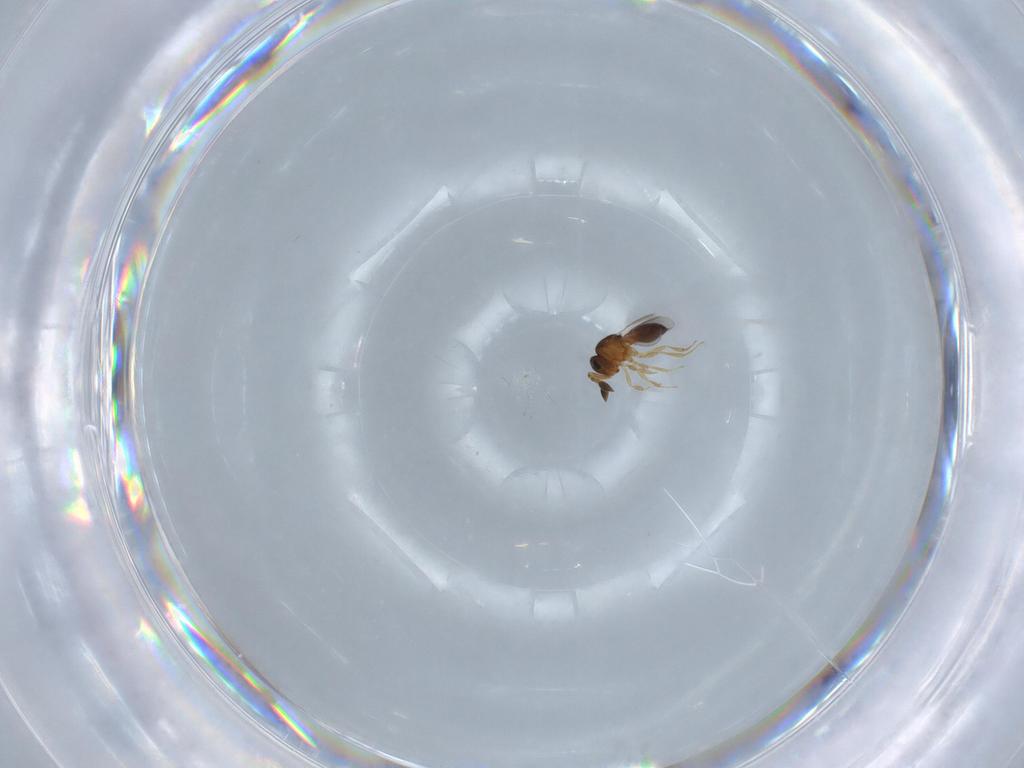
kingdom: Animalia
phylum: Arthropoda
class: Insecta
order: Hymenoptera
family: Scelionidae
